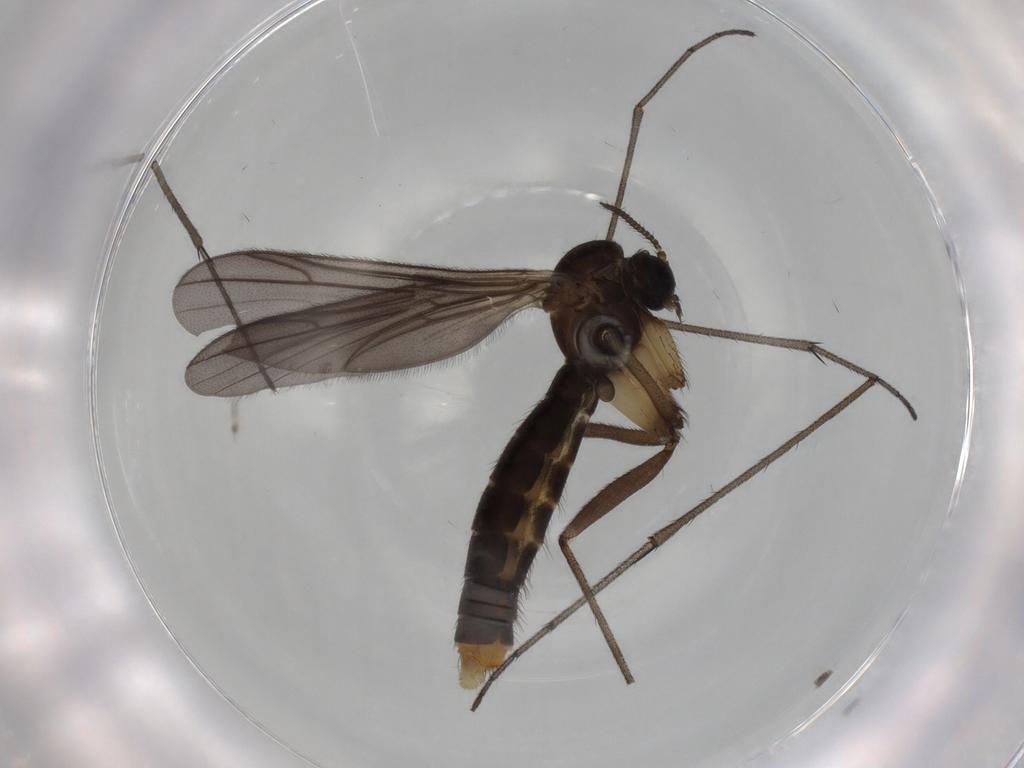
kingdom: Animalia
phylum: Arthropoda
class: Insecta
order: Diptera
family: Ditomyiidae
